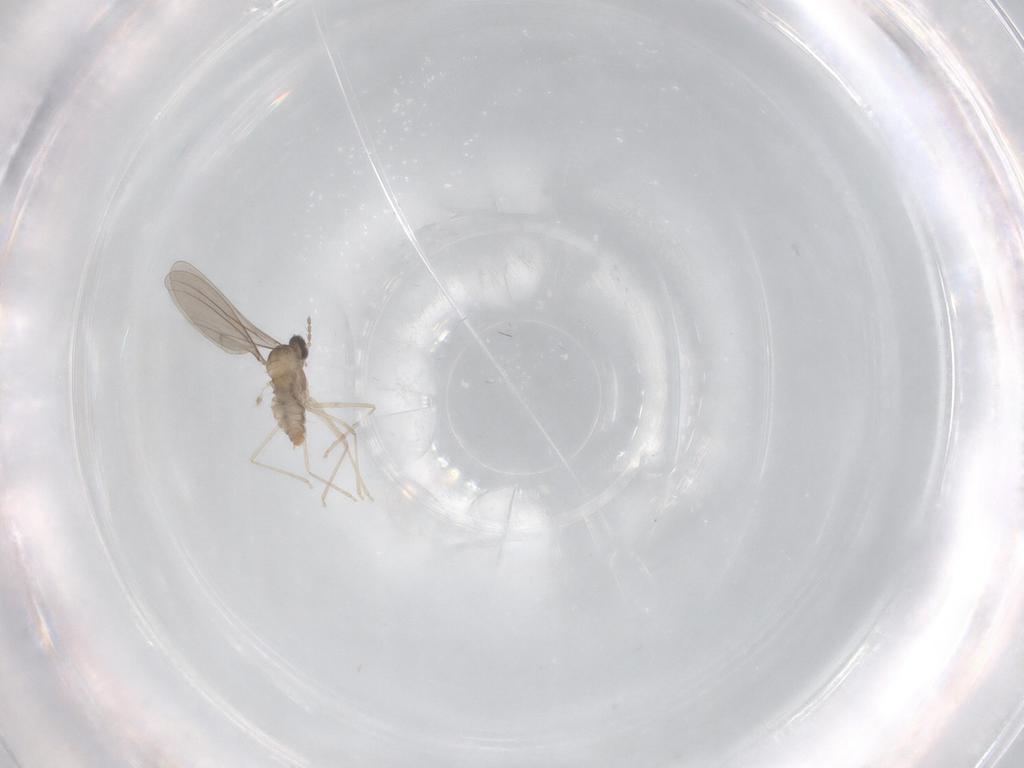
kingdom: Animalia
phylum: Arthropoda
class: Insecta
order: Diptera
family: Cecidomyiidae
